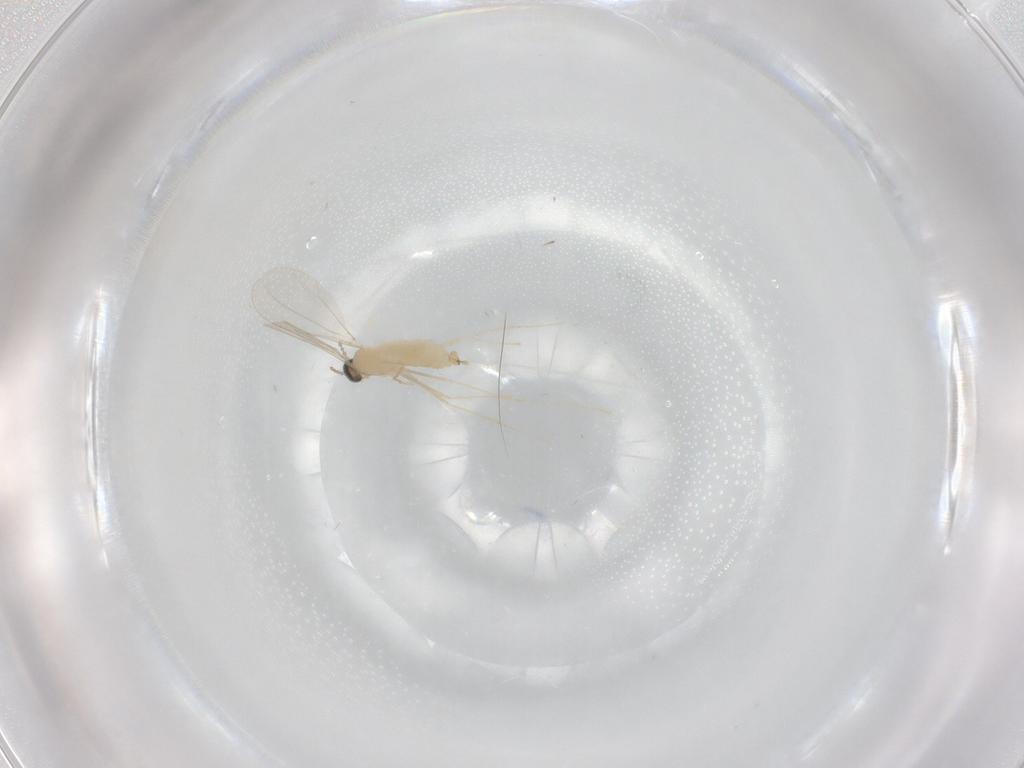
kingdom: Animalia
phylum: Arthropoda
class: Insecta
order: Diptera
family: Cecidomyiidae
